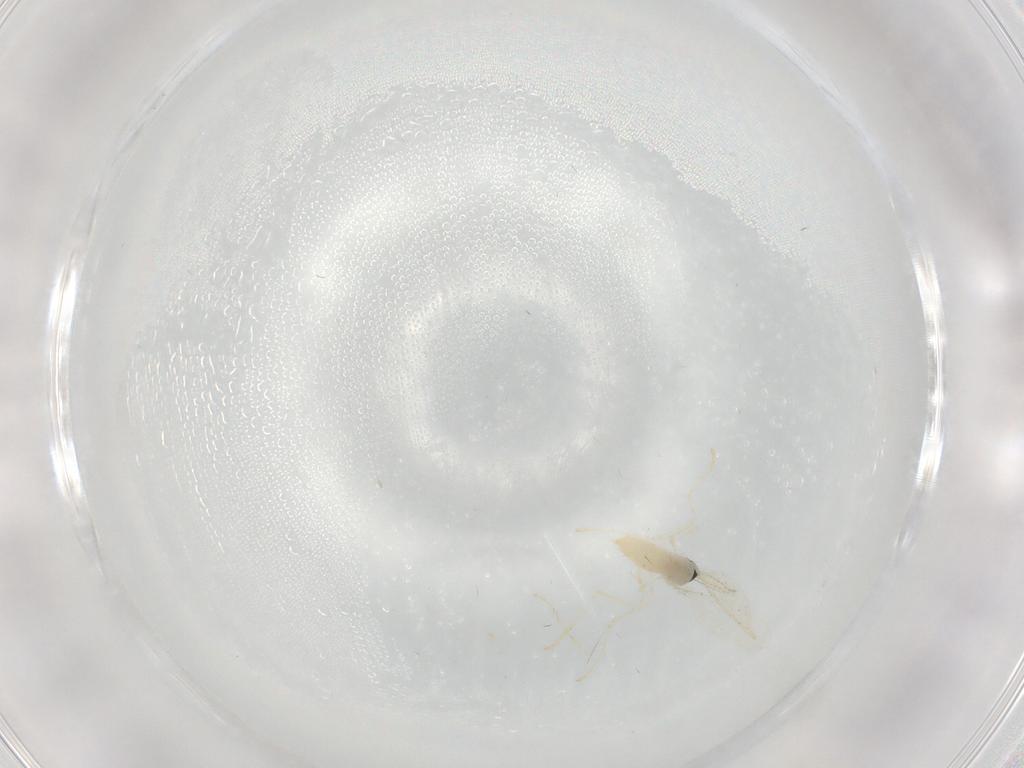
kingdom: Animalia
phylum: Arthropoda
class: Insecta
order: Diptera
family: Cecidomyiidae
